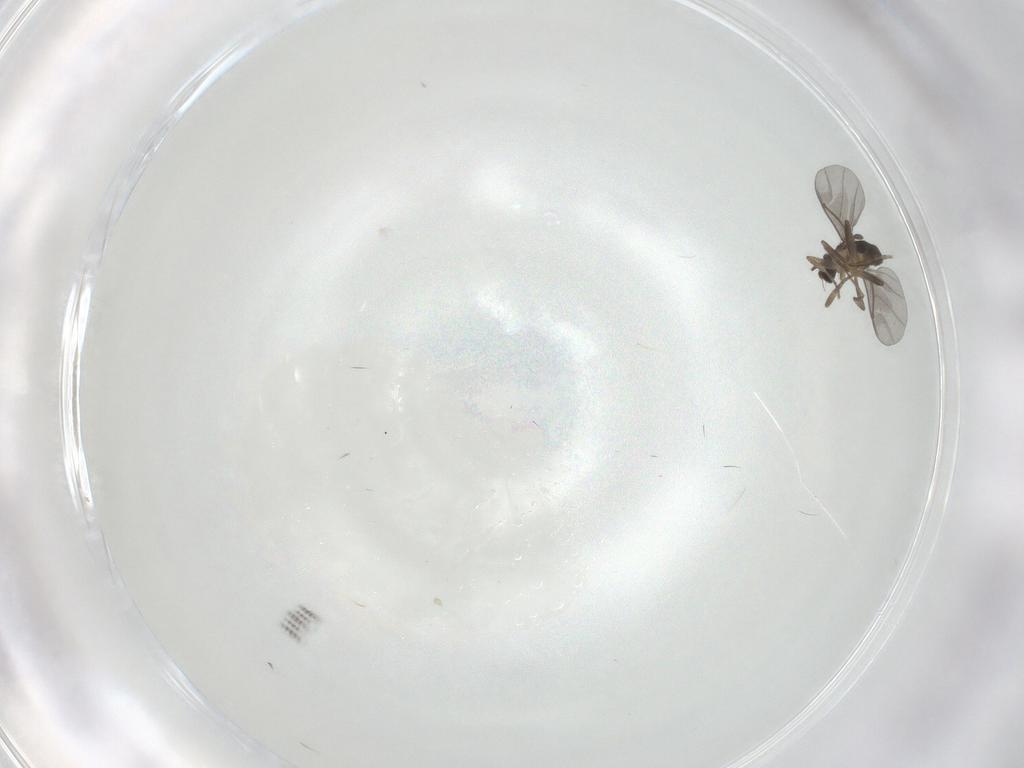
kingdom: Animalia
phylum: Arthropoda
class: Insecta
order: Diptera
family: Cecidomyiidae
